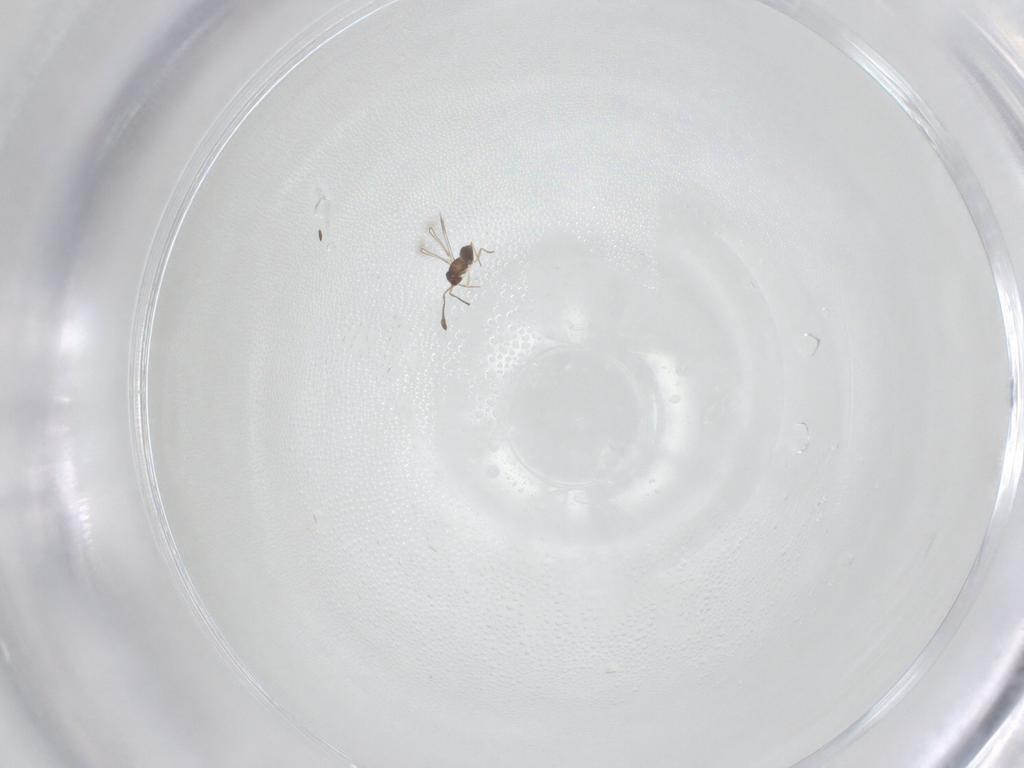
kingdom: Animalia
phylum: Arthropoda
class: Insecta
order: Hymenoptera
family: Mymaridae
